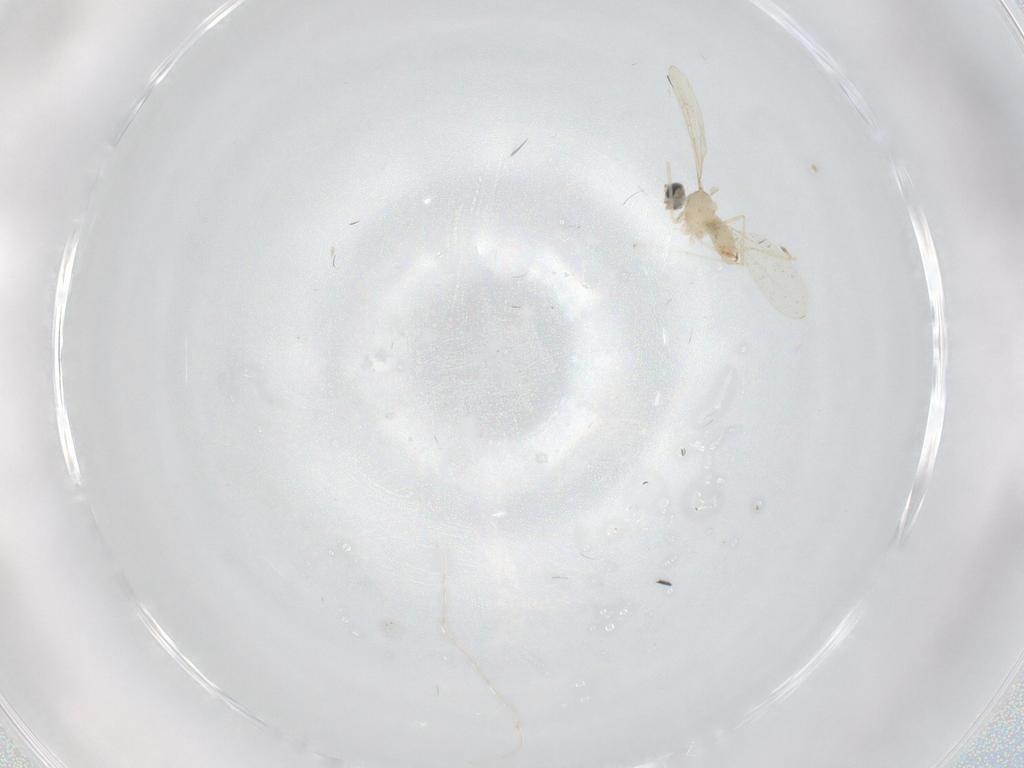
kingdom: Animalia
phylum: Arthropoda
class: Insecta
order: Diptera
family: Cecidomyiidae
